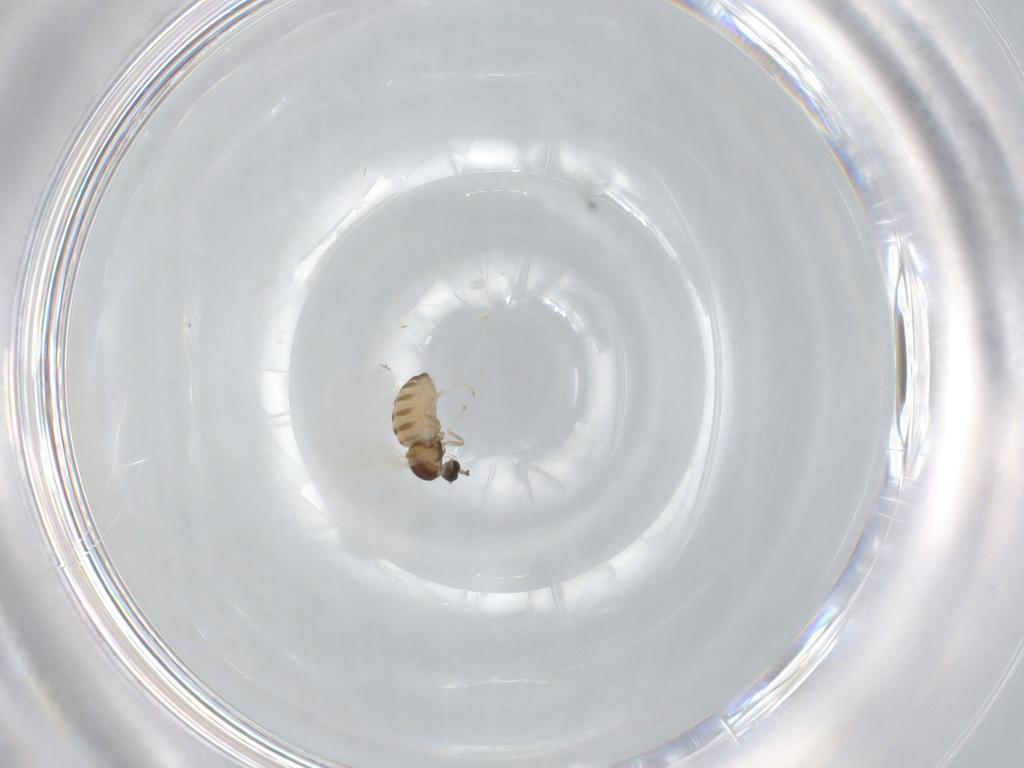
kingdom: Animalia
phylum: Arthropoda
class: Insecta
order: Diptera
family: Cecidomyiidae
